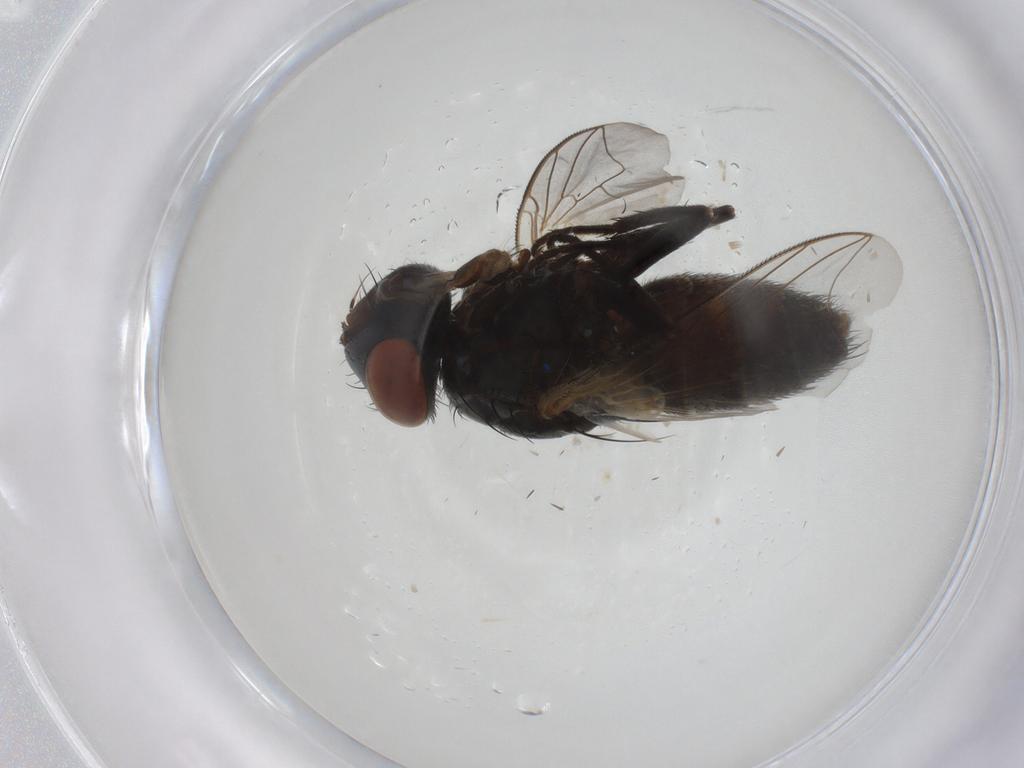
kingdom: Animalia
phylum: Arthropoda
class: Insecta
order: Diptera
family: Sarcophagidae
